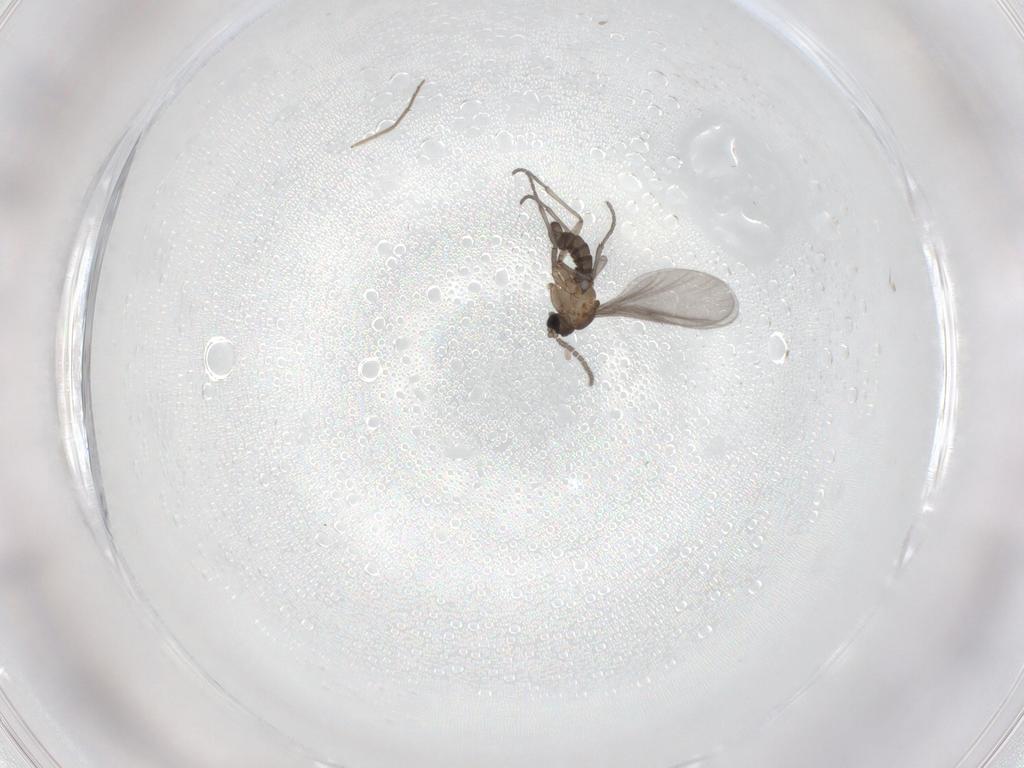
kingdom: Animalia
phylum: Arthropoda
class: Insecta
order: Diptera
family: Sciaridae
